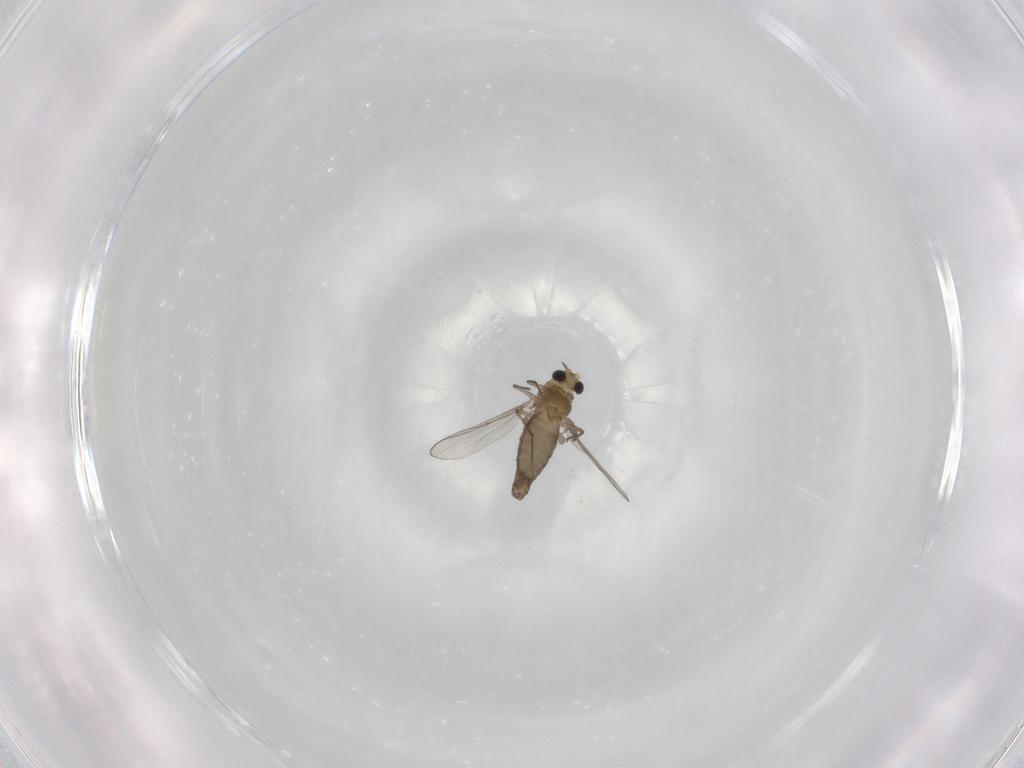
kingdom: Animalia
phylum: Arthropoda
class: Insecta
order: Diptera
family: Chironomidae
